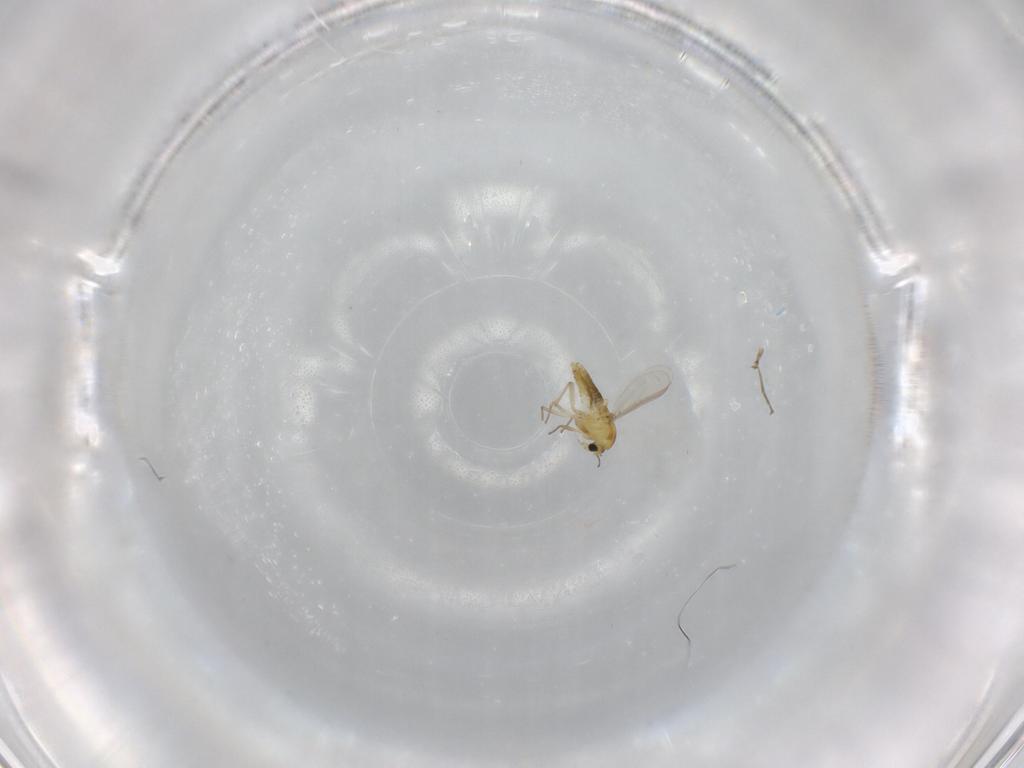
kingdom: Animalia
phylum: Arthropoda
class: Insecta
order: Diptera
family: Chironomidae
